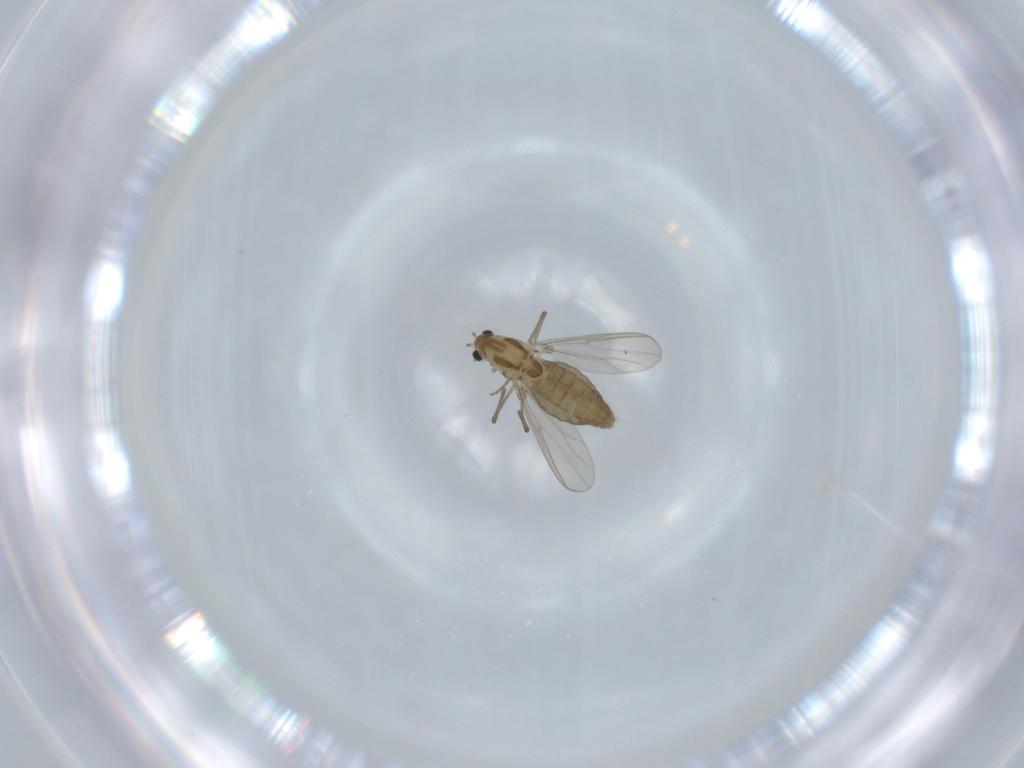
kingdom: Animalia
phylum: Arthropoda
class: Insecta
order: Diptera
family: Chironomidae
